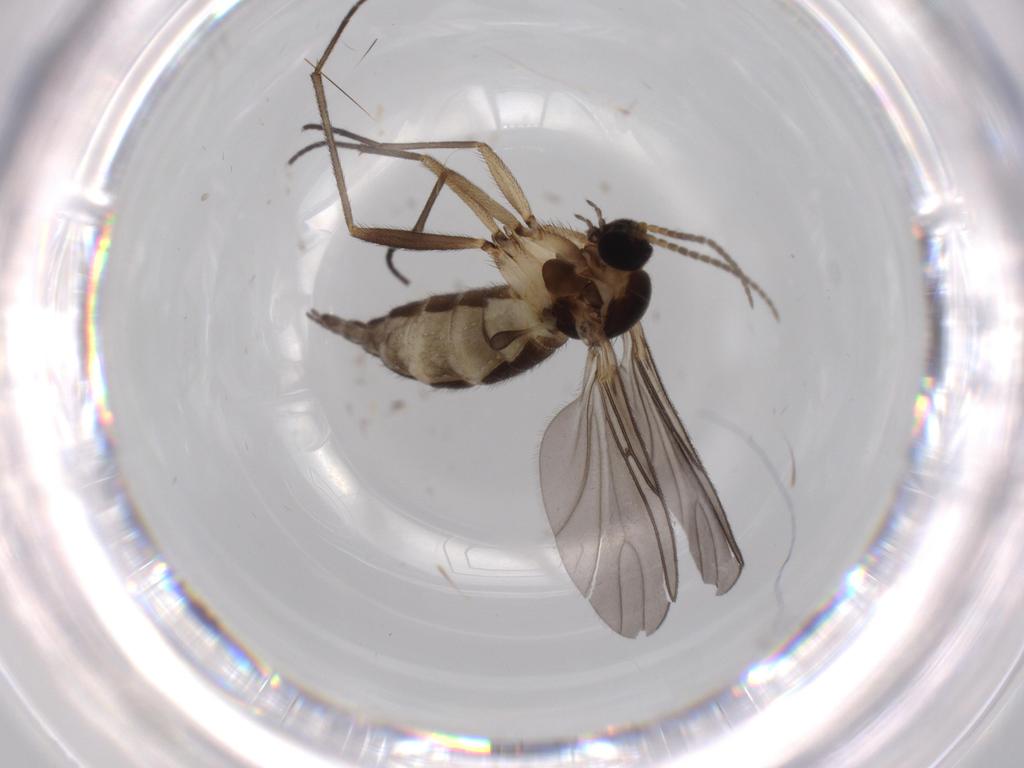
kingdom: Animalia
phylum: Arthropoda
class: Insecta
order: Diptera
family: Sciaridae
